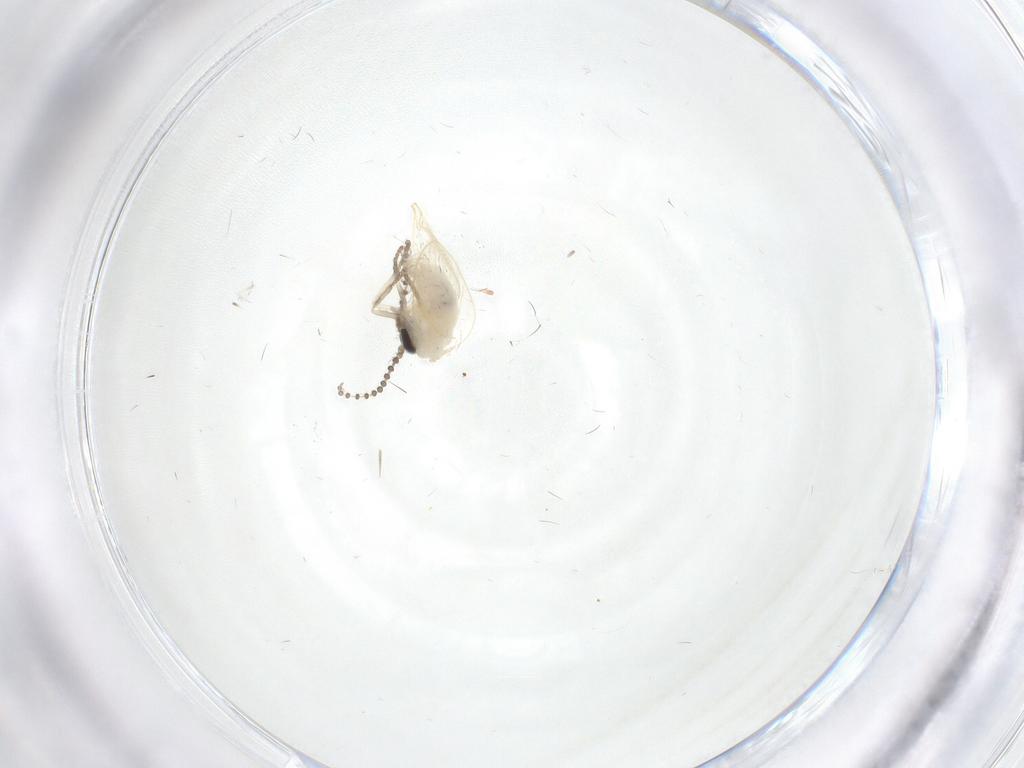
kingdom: Animalia
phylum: Arthropoda
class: Insecta
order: Diptera
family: Psychodidae
